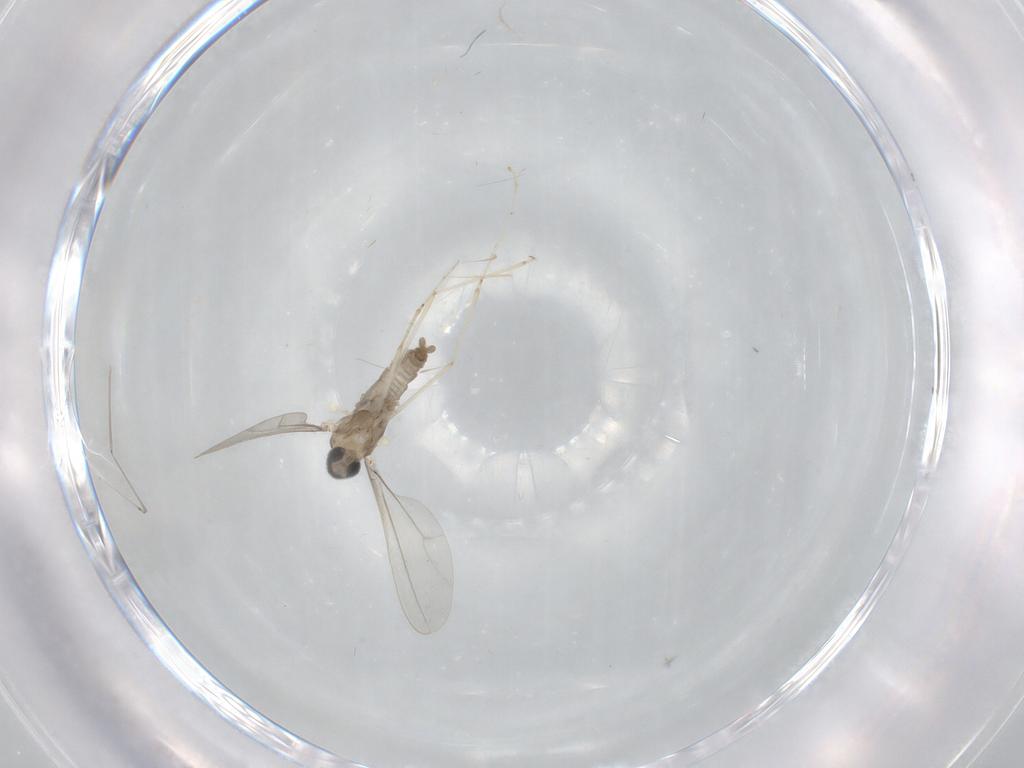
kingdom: Animalia
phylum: Arthropoda
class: Insecta
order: Diptera
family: Cecidomyiidae
